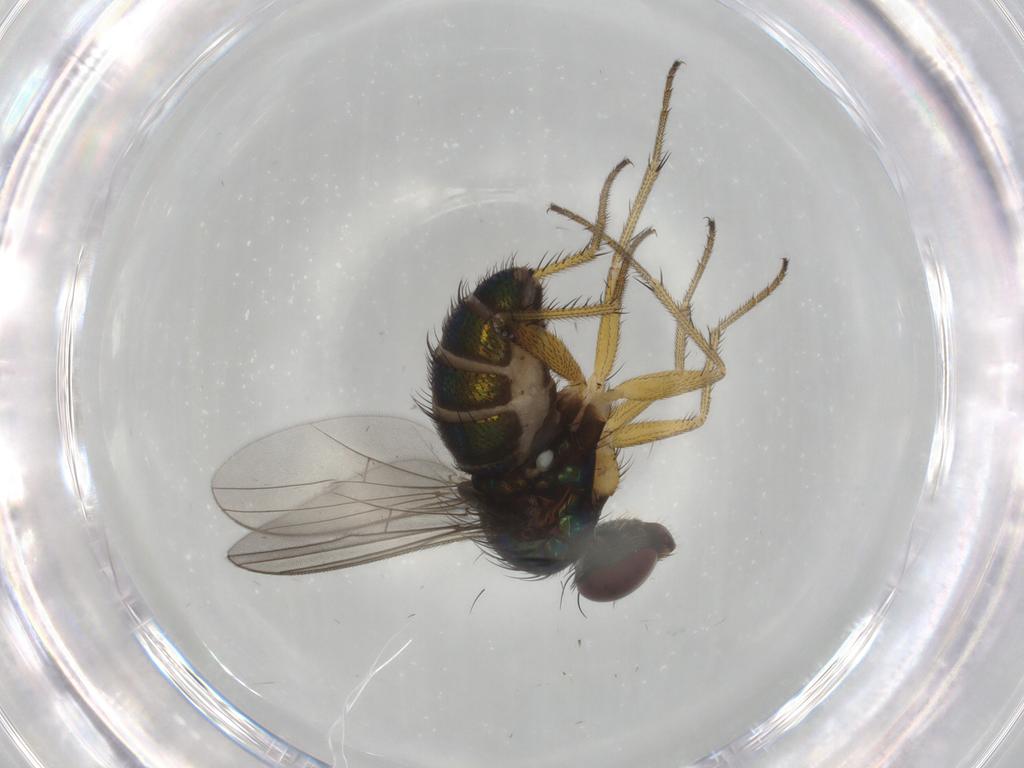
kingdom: Animalia
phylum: Arthropoda
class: Insecta
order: Diptera
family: Dolichopodidae
